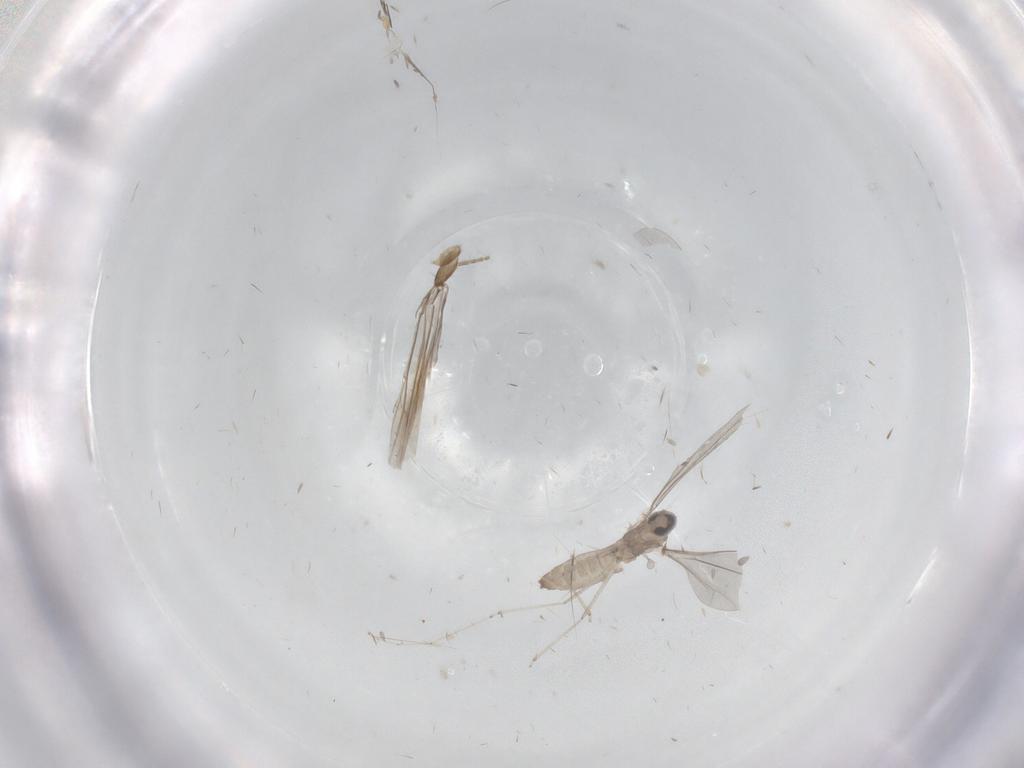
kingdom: Animalia
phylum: Arthropoda
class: Insecta
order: Diptera
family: Cecidomyiidae
